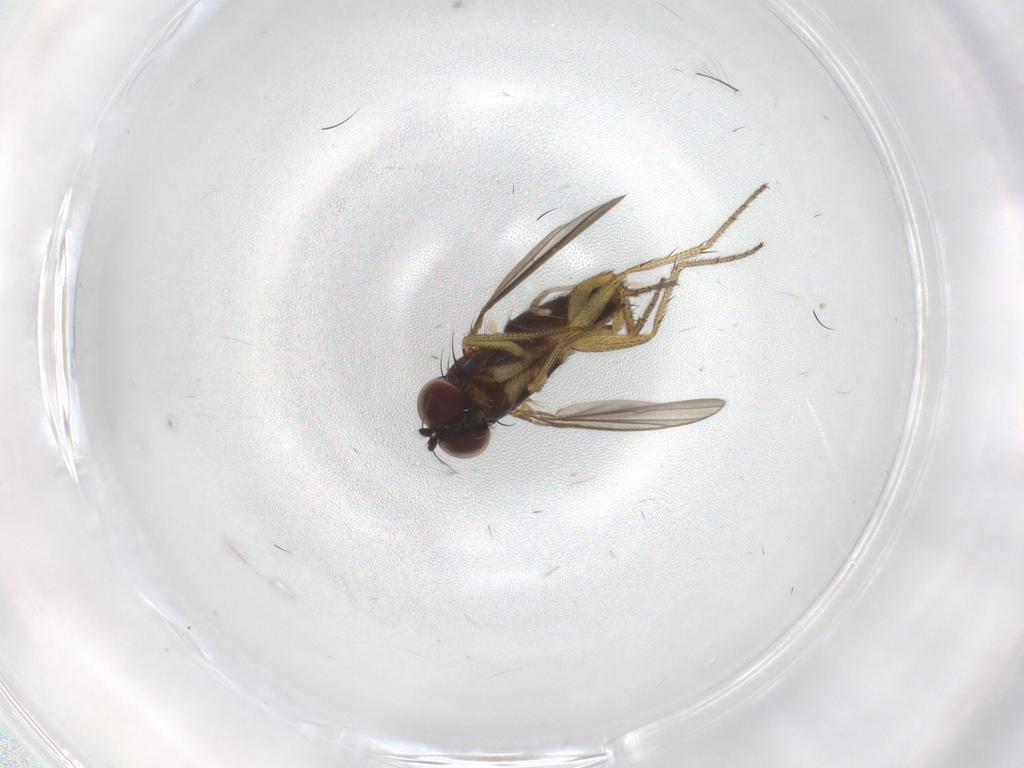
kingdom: Animalia
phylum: Arthropoda
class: Insecta
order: Diptera
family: Dolichopodidae
